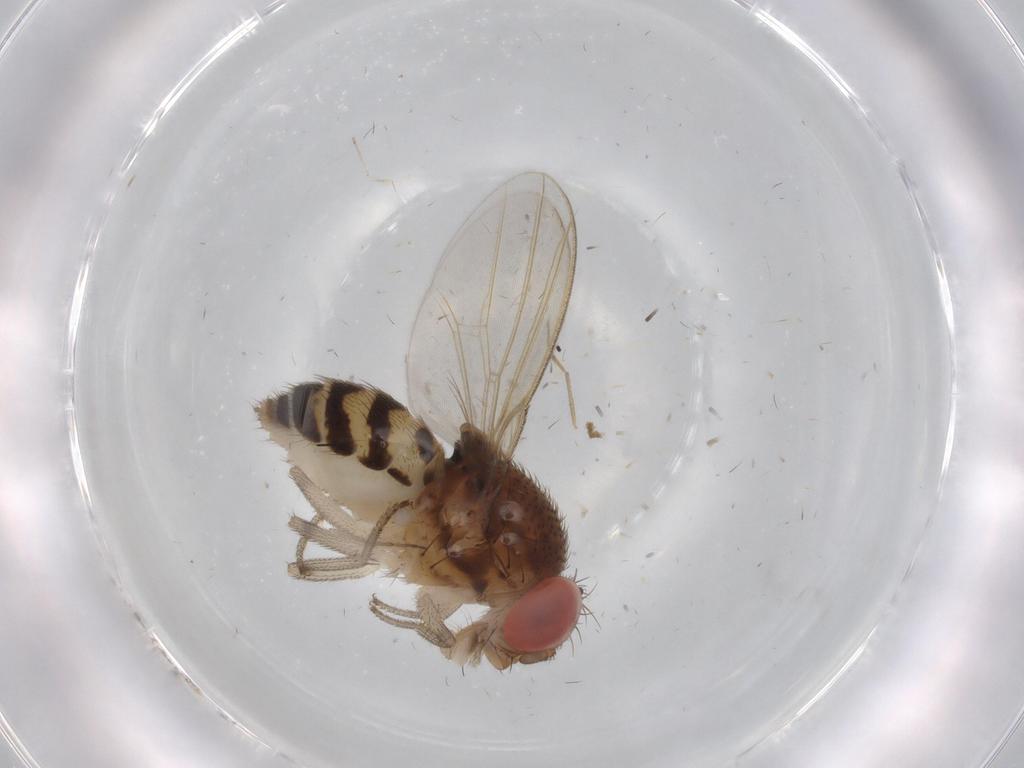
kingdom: Animalia
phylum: Arthropoda
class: Insecta
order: Diptera
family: Drosophilidae
